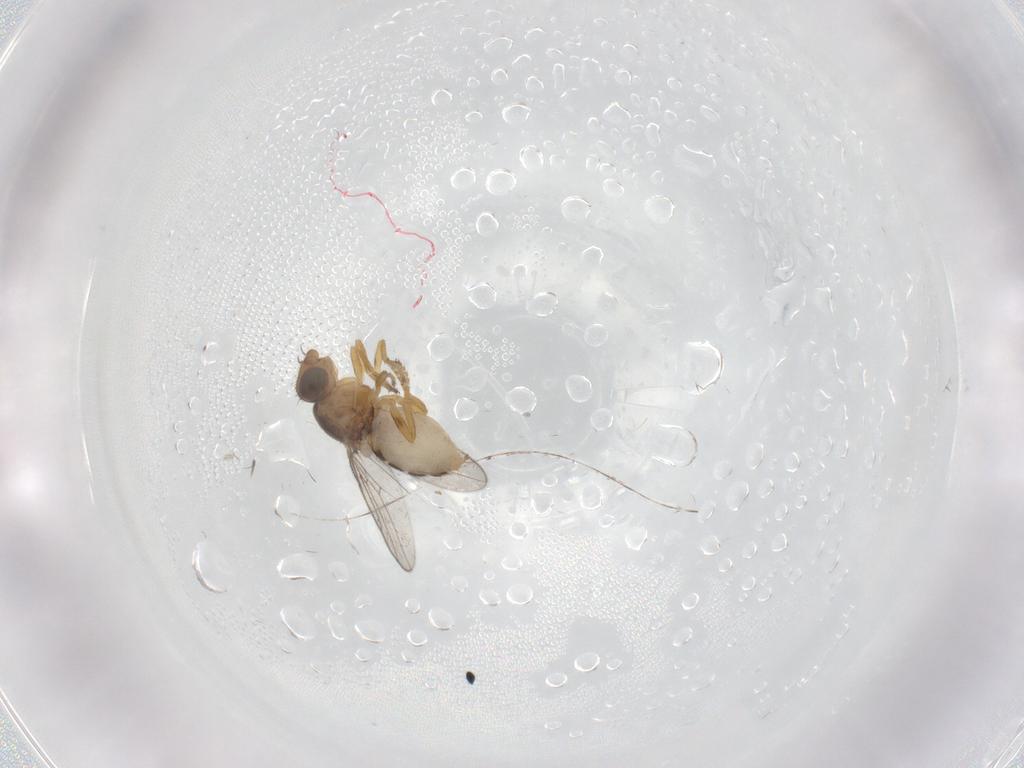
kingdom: Animalia
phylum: Arthropoda
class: Insecta
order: Diptera
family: Chloropidae
